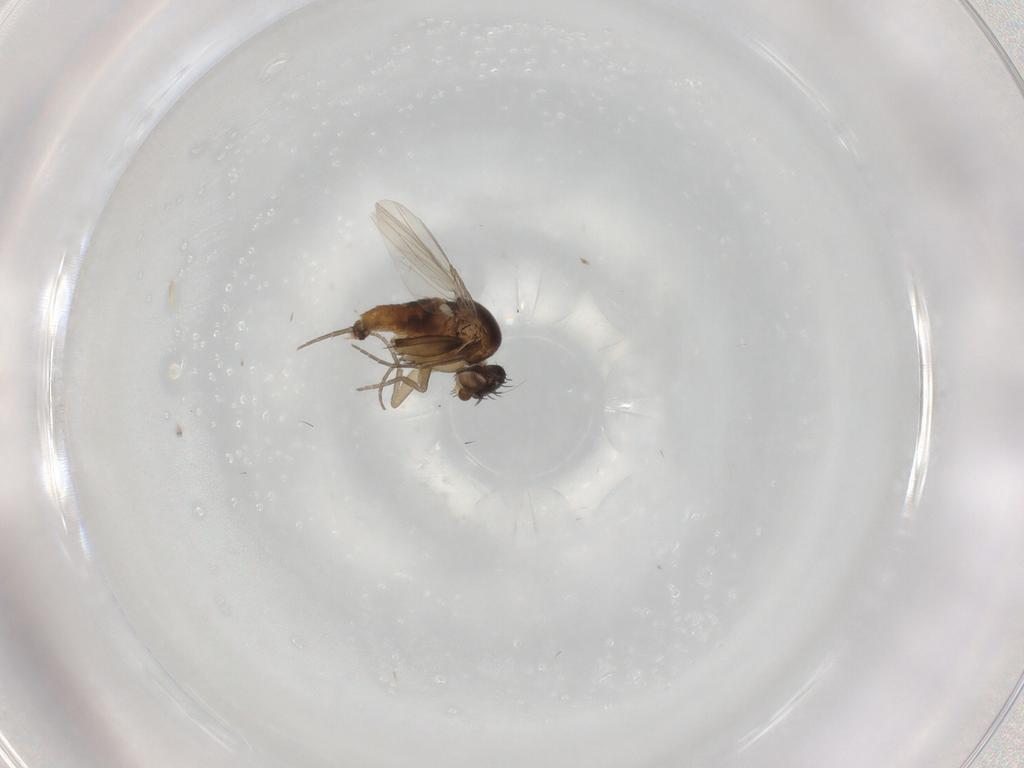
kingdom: Animalia
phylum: Arthropoda
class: Insecta
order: Diptera
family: Phoridae
